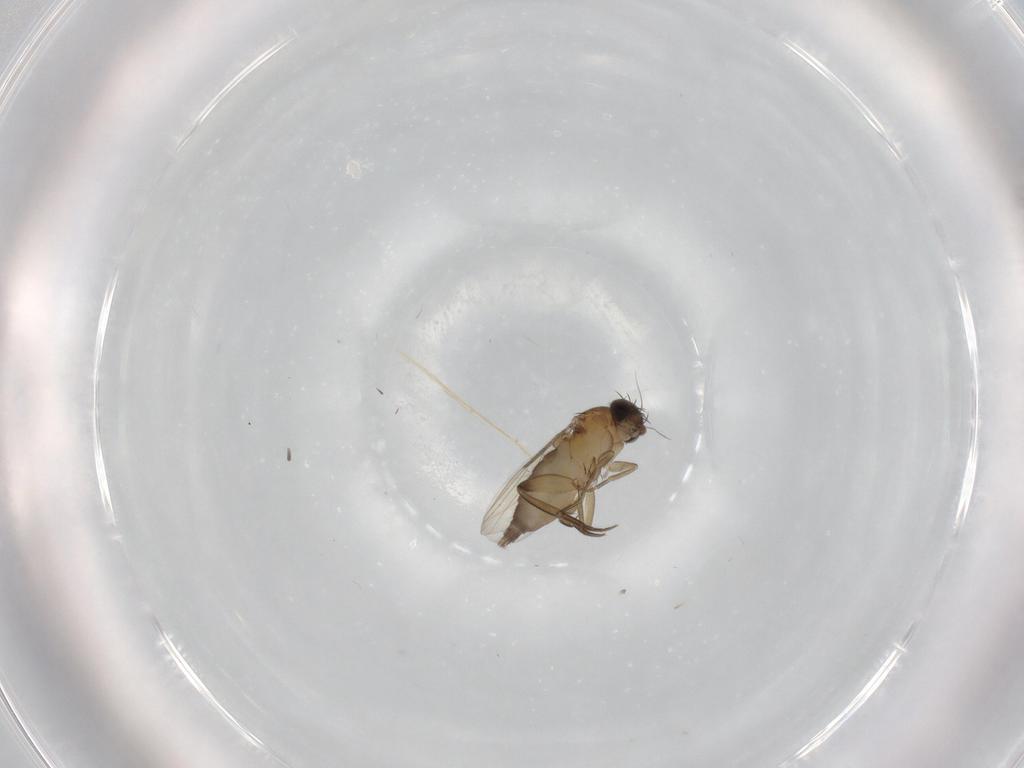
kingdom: Animalia
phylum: Arthropoda
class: Insecta
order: Diptera
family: Phoridae
